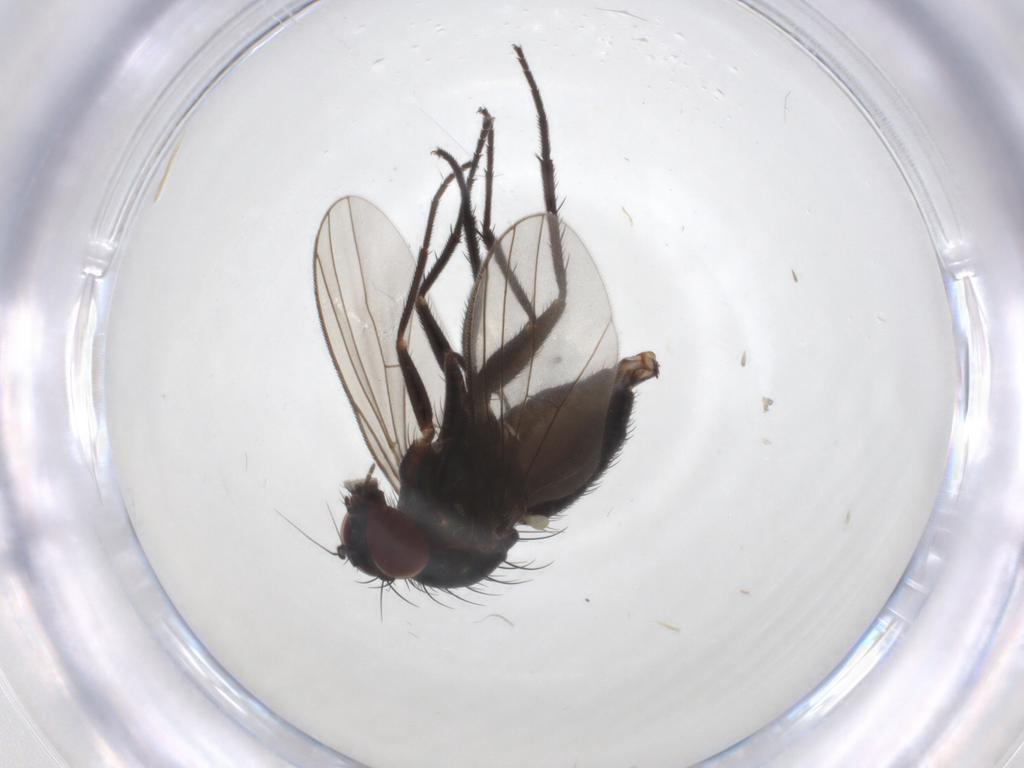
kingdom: Animalia
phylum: Arthropoda
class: Insecta
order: Diptera
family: Dolichopodidae
